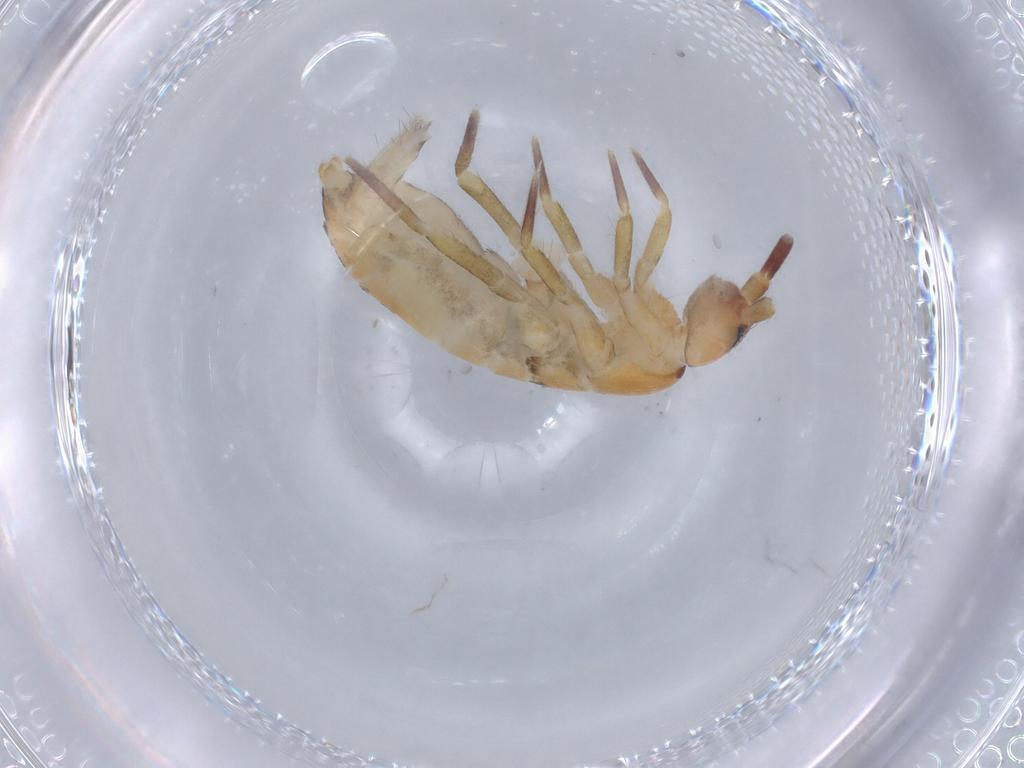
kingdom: Animalia
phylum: Arthropoda
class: Collembola
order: Entomobryomorpha
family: Tomoceridae
